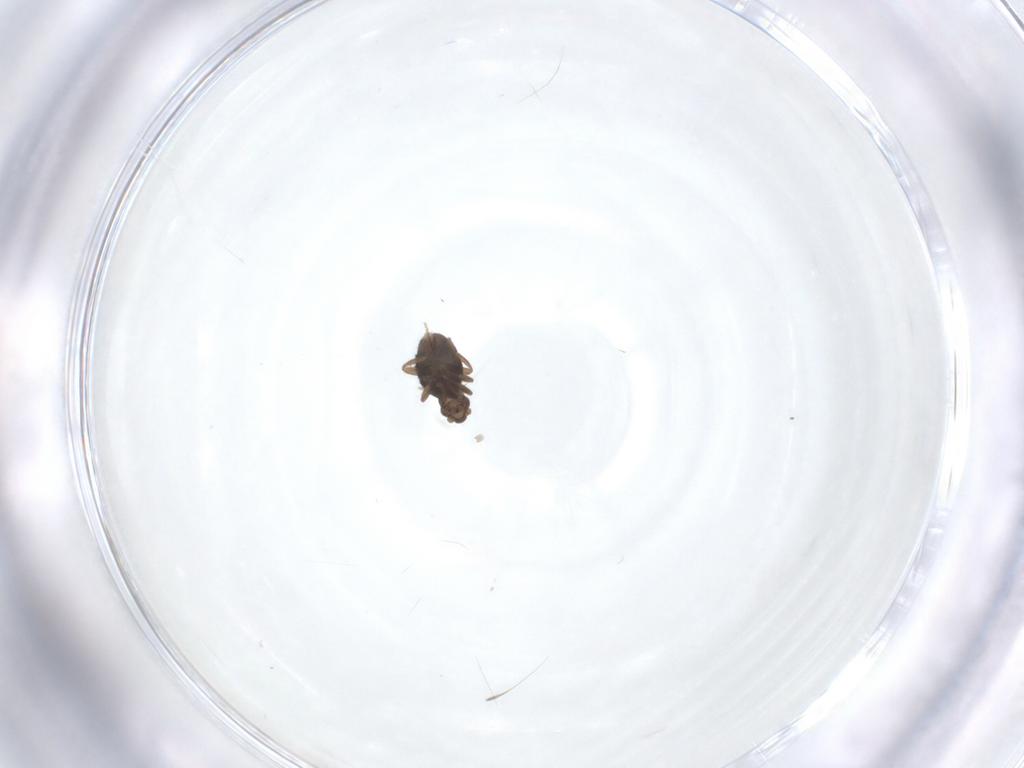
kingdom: Animalia
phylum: Arthropoda
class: Insecta
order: Diptera
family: Phoridae
